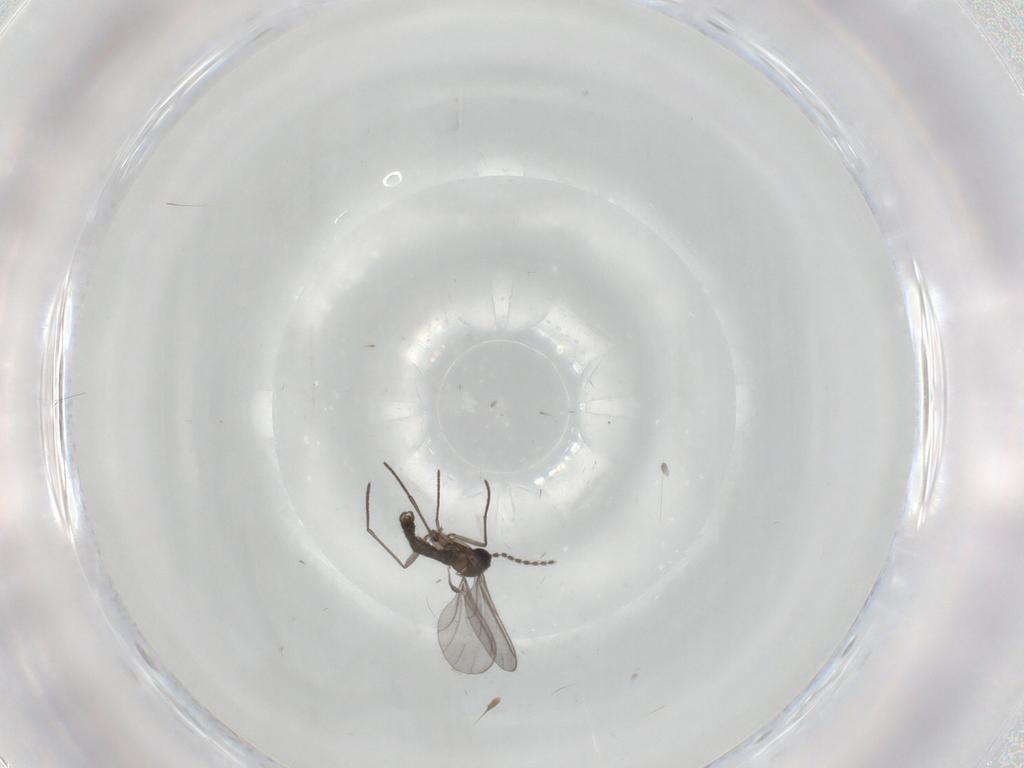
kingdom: Animalia
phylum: Arthropoda
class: Insecta
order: Diptera
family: Sciaridae
